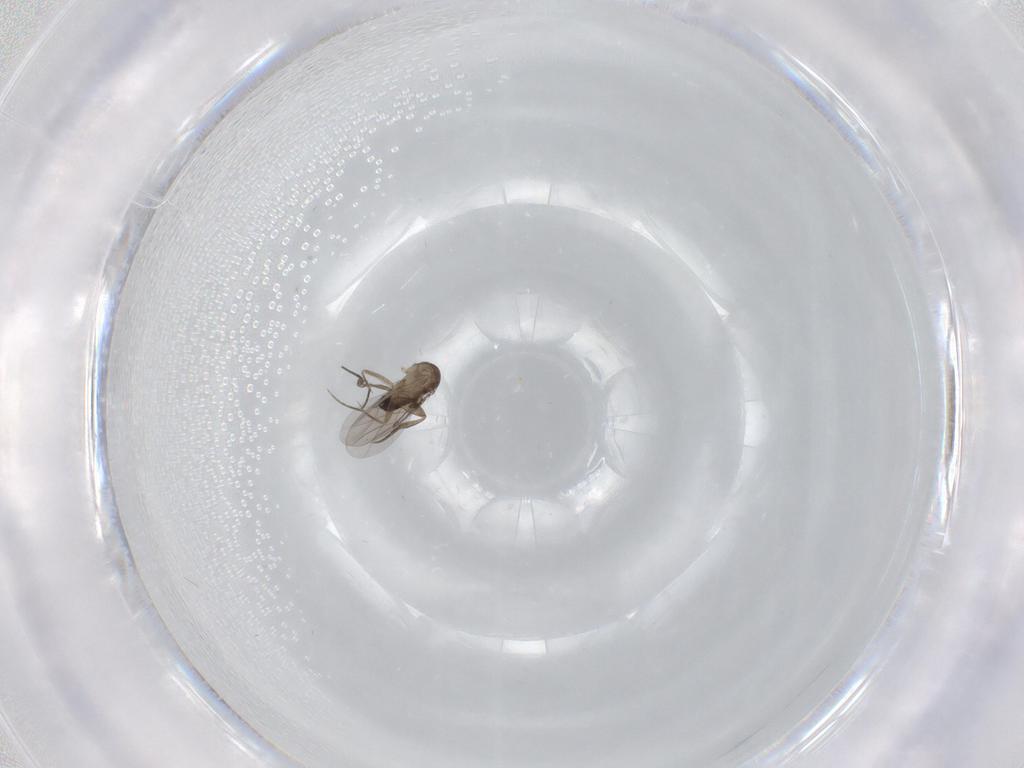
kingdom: Animalia
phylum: Arthropoda
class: Insecta
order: Diptera
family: Phoridae
